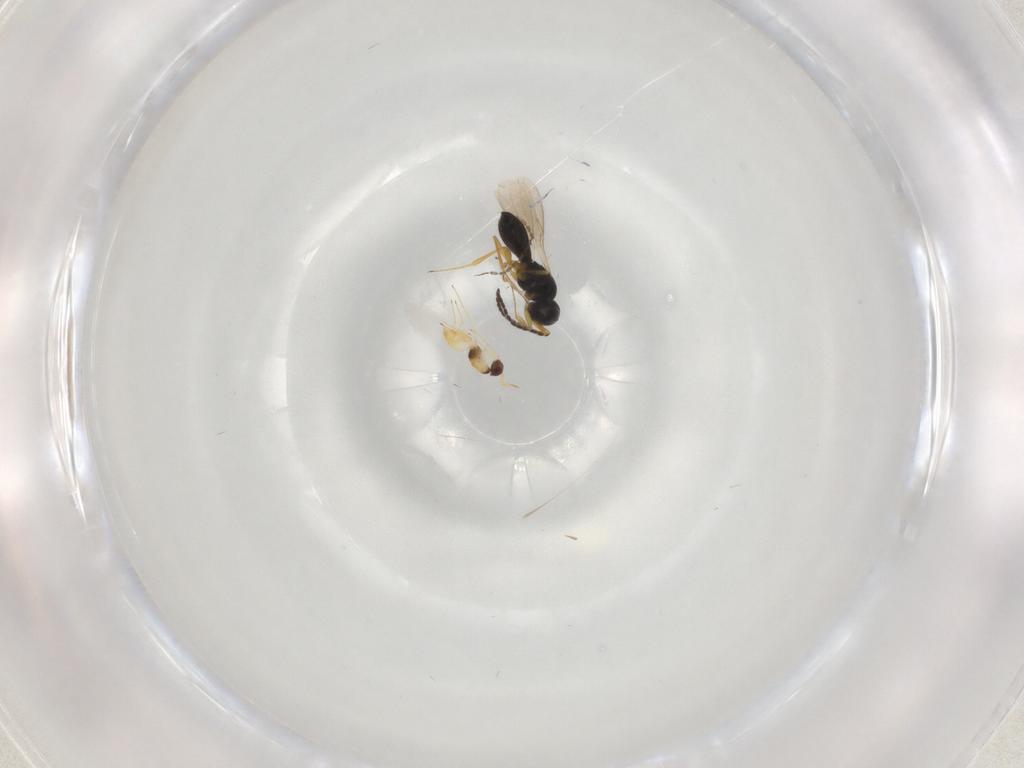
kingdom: Animalia
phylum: Arthropoda
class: Insecta
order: Hymenoptera
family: Scelionidae
